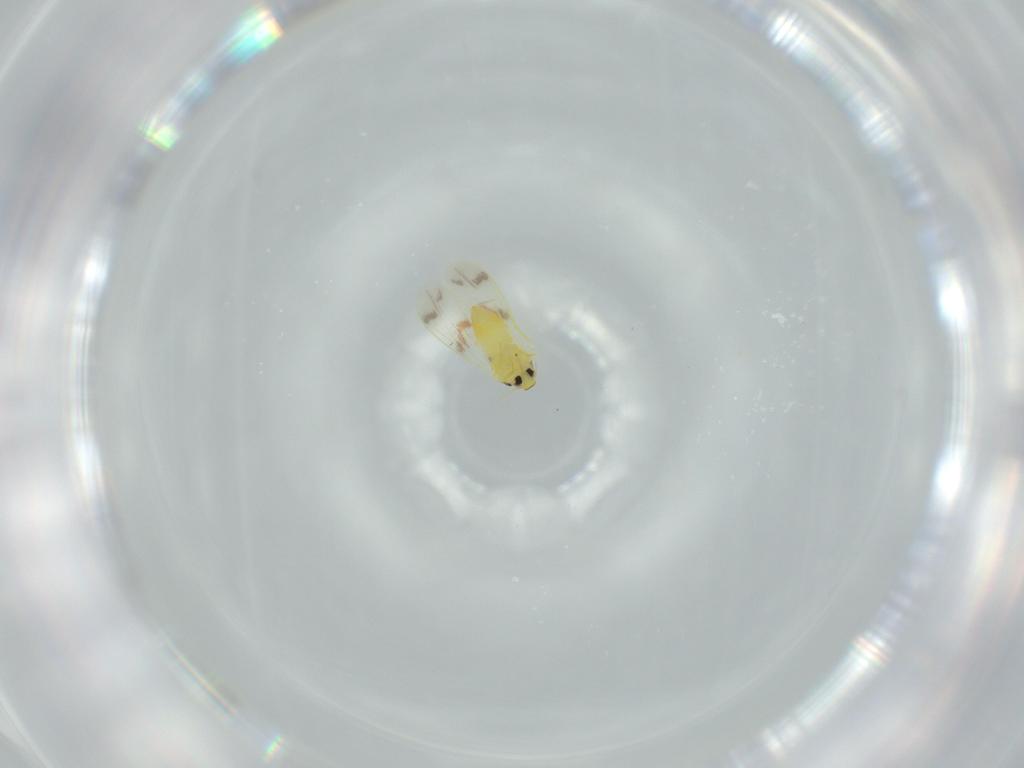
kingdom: Animalia
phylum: Arthropoda
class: Insecta
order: Hemiptera
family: Aleyrodidae
